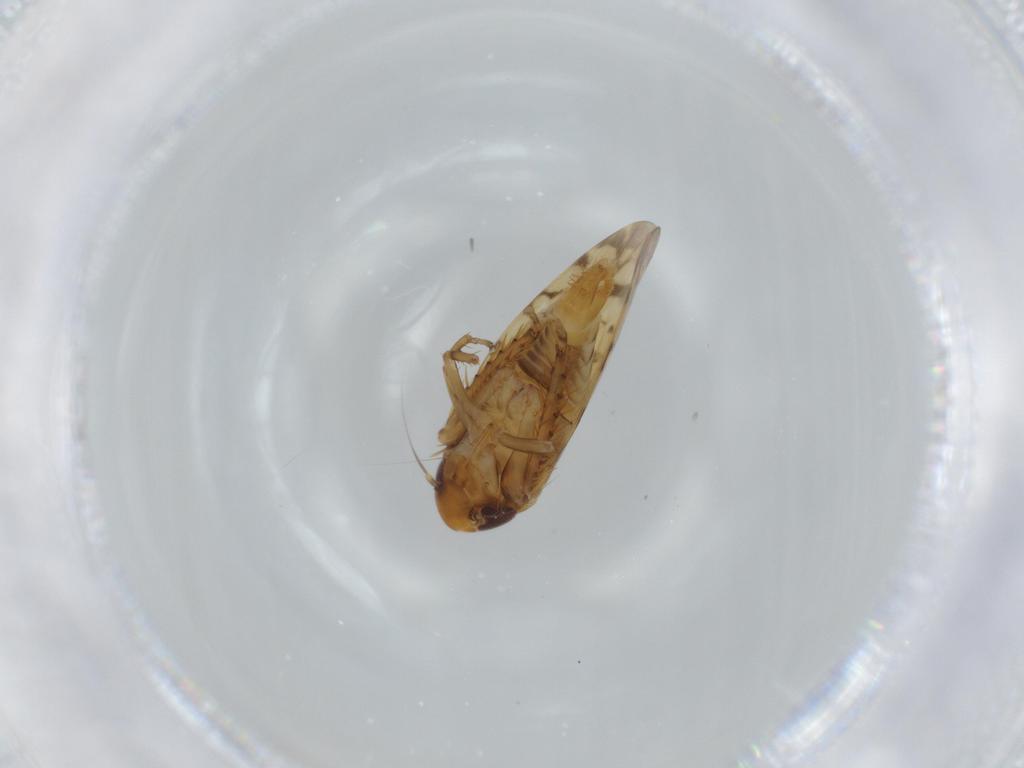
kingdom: Animalia
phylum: Arthropoda
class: Insecta
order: Hemiptera
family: Cicadellidae
